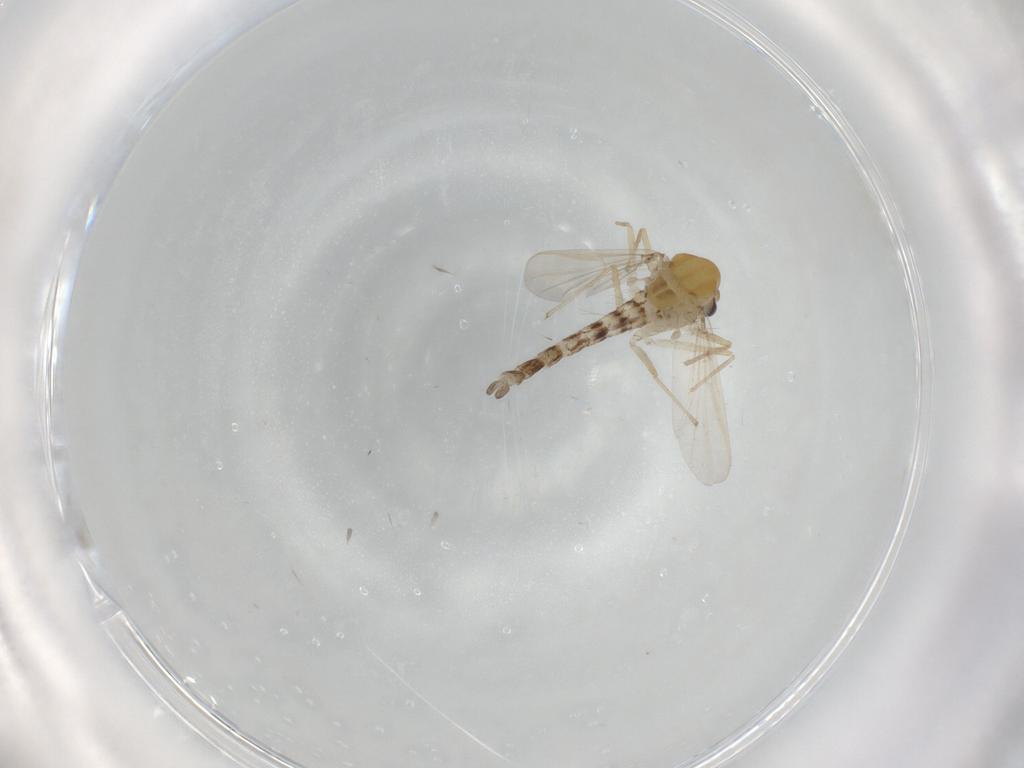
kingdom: Animalia
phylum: Arthropoda
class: Insecta
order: Diptera
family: Chironomidae
